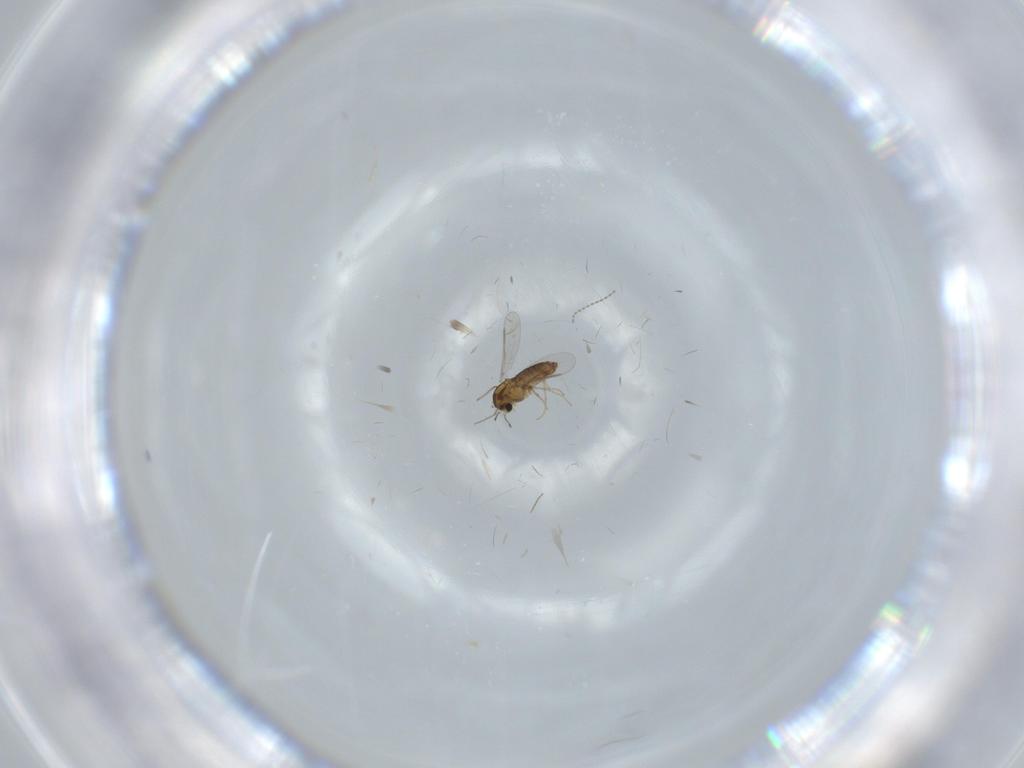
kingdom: Animalia
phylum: Arthropoda
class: Insecta
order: Diptera
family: Chironomidae
